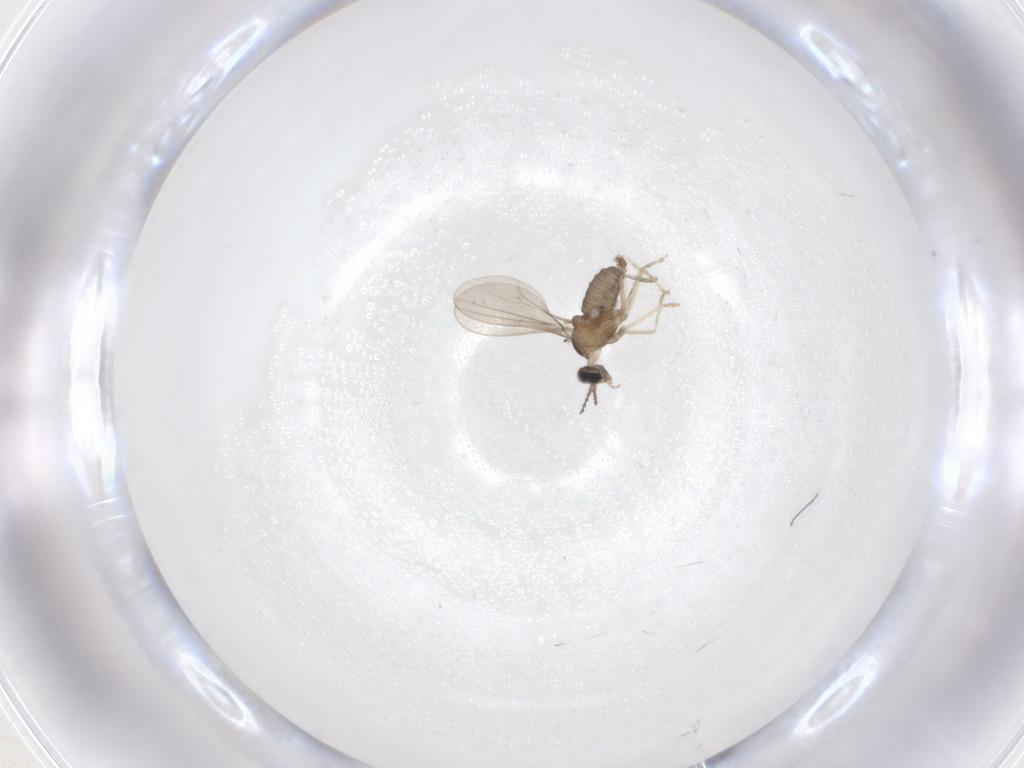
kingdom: Animalia
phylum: Arthropoda
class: Insecta
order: Diptera
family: Cecidomyiidae
